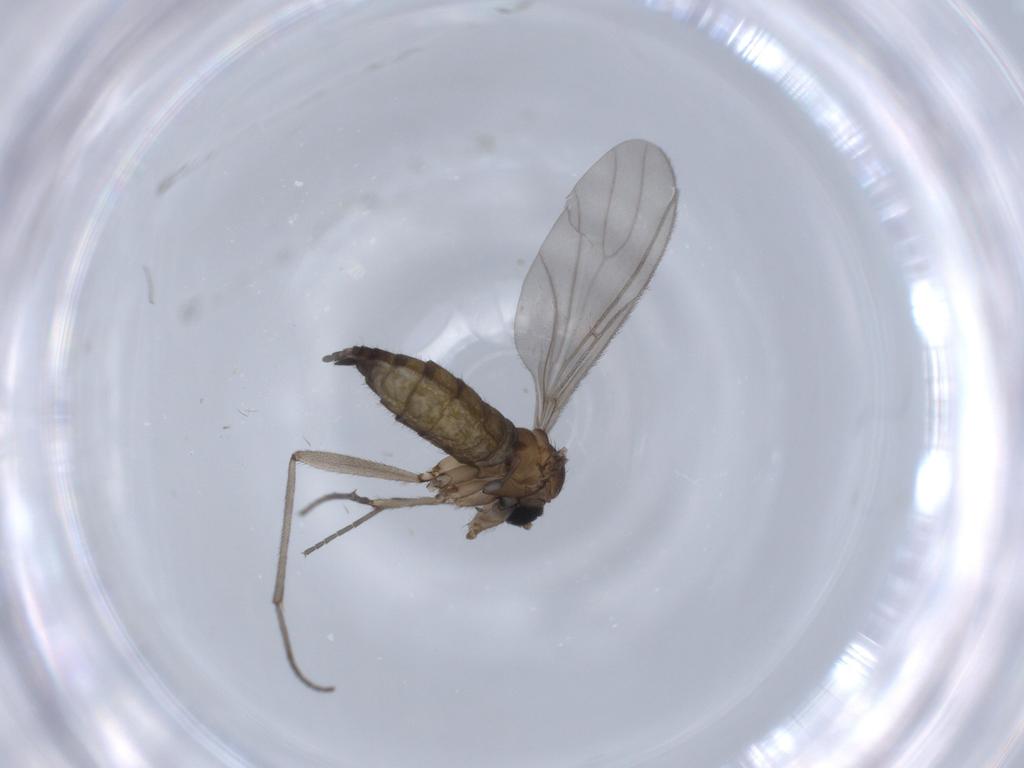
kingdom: Animalia
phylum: Arthropoda
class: Insecta
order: Diptera
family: Sciaridae
